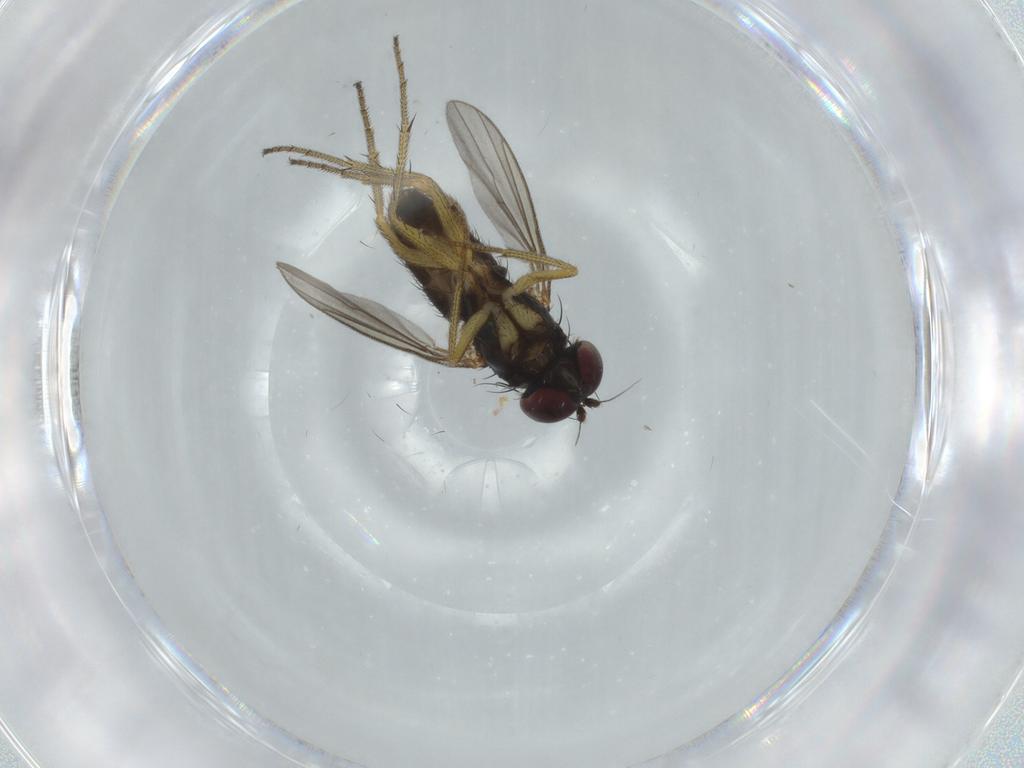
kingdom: Animalia
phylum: Arthropoda
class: Insecta
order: Diptera
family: Dolichopodidae
